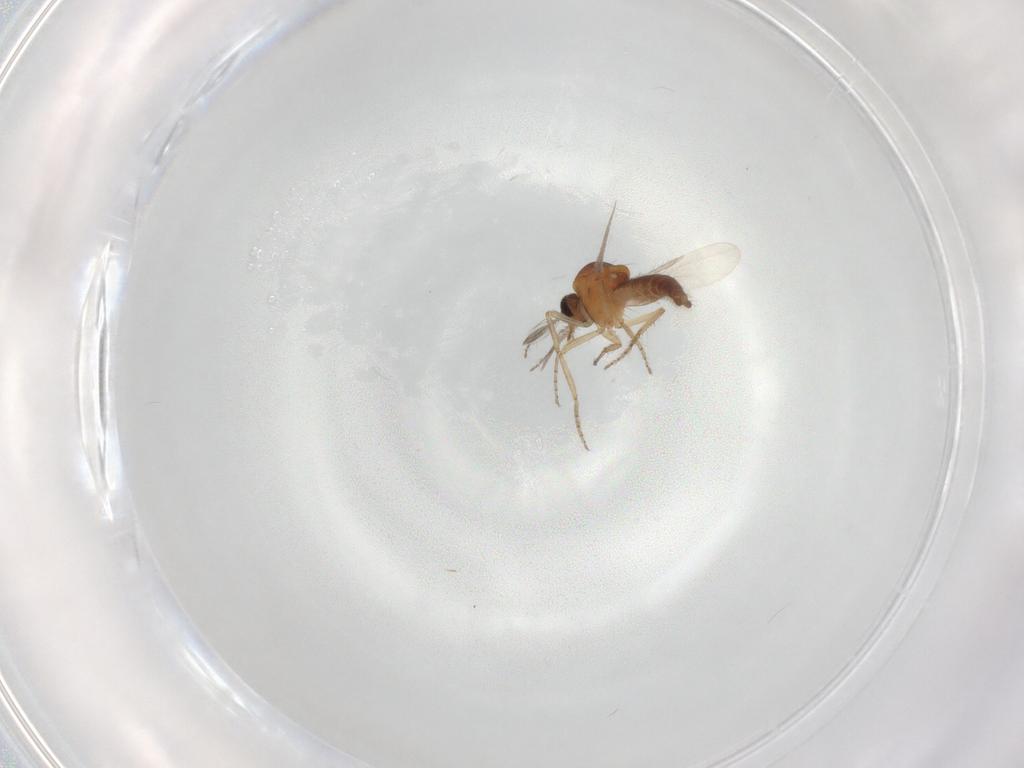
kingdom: Animalia
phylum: Arthropoda
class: Insecta
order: Diptera
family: Ceratopogonidae
